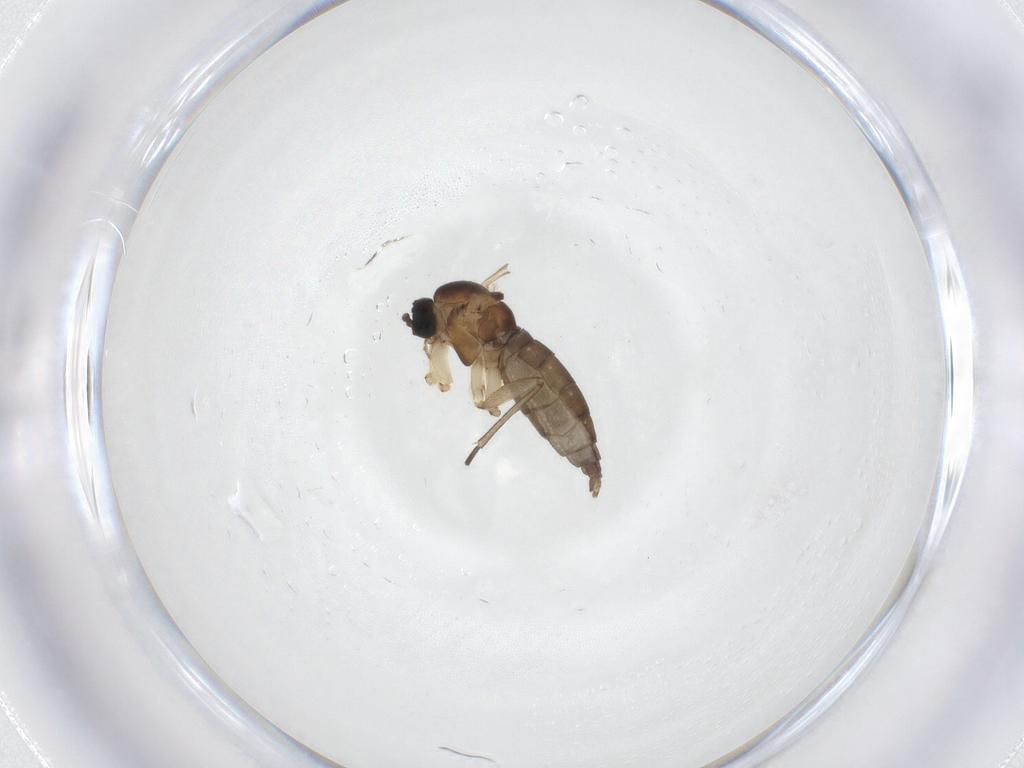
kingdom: Animalia
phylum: Arthropoda
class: Insecta
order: Diptera
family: Sciaridae
